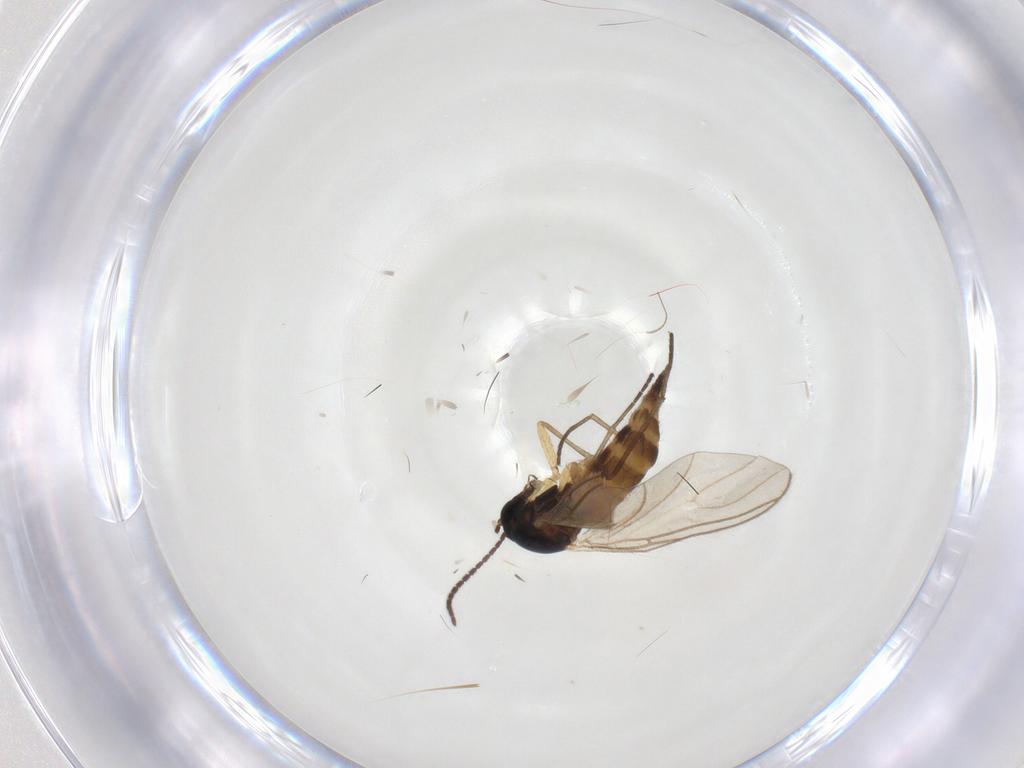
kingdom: Animalia
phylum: Arthropoda
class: Insecta
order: Diptera
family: Sciaridae
